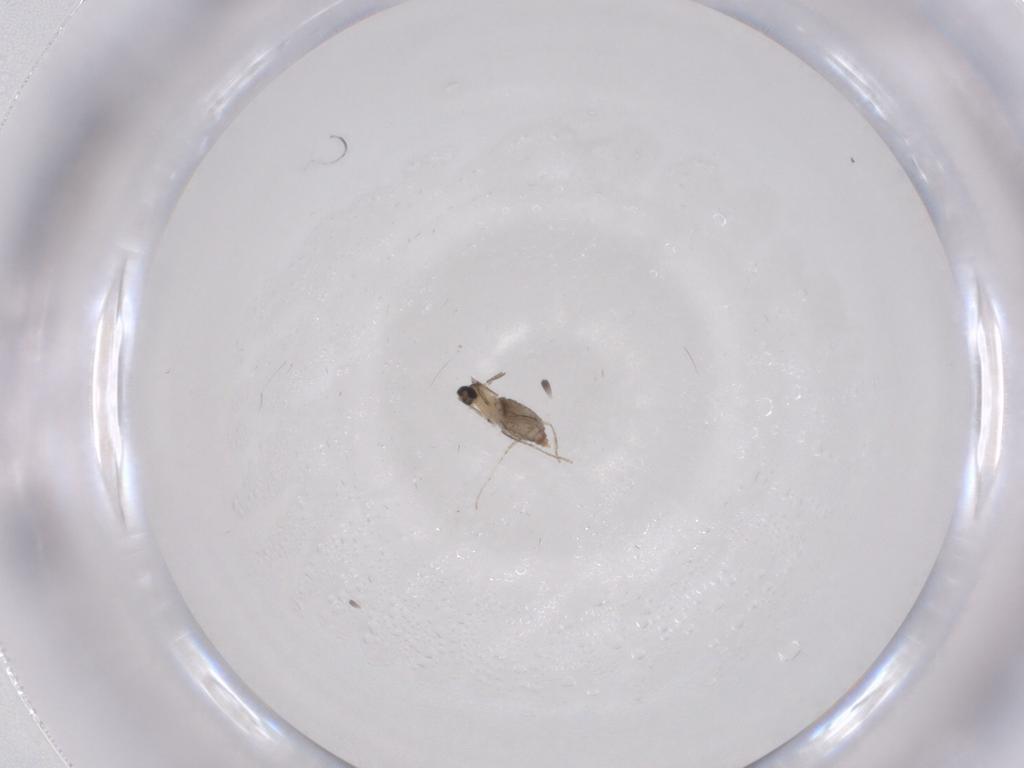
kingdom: Animalia
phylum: Arthropoda
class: Insecta
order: Diptera
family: Cecidomyiidae
